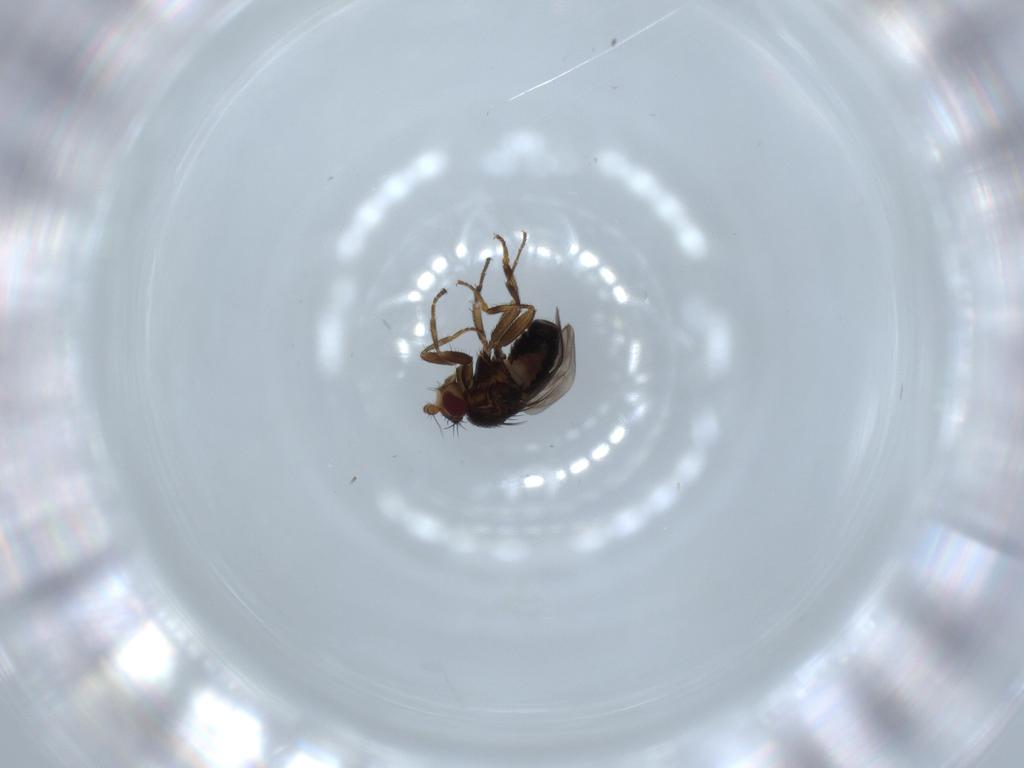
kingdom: Animalia
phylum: Arthropoda
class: Insecta
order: Diptera
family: Sphaeroceridae
